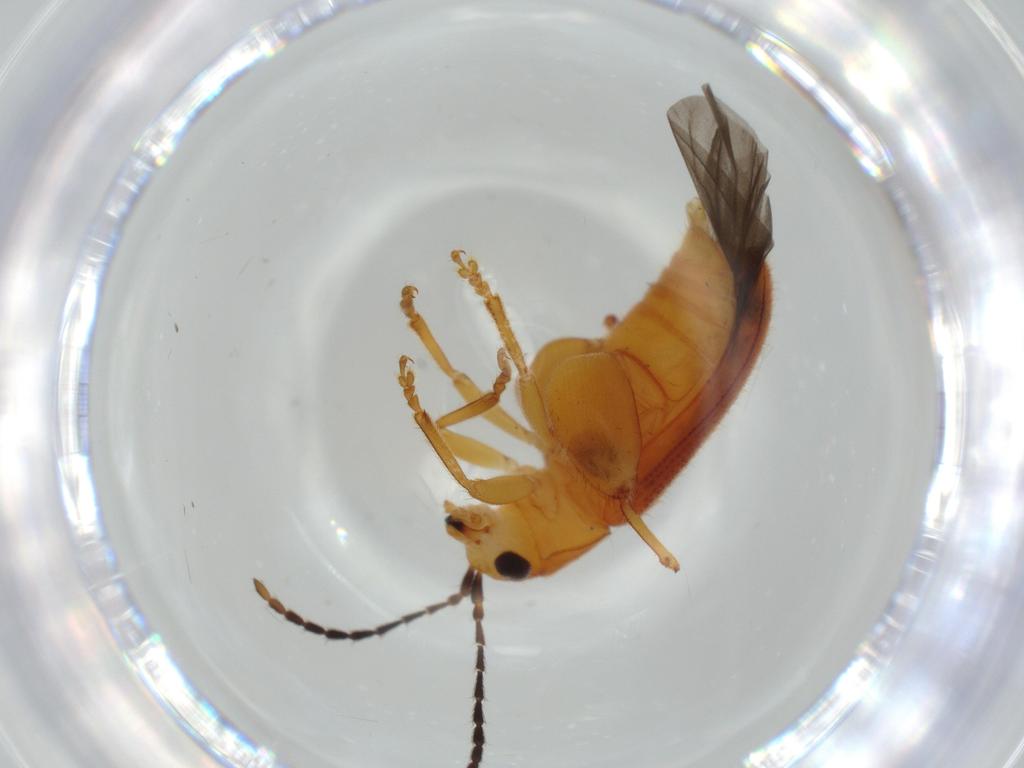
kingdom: Animalia
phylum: Arthropoda
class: Insecta
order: Coleoptera
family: Chrysomelidae
